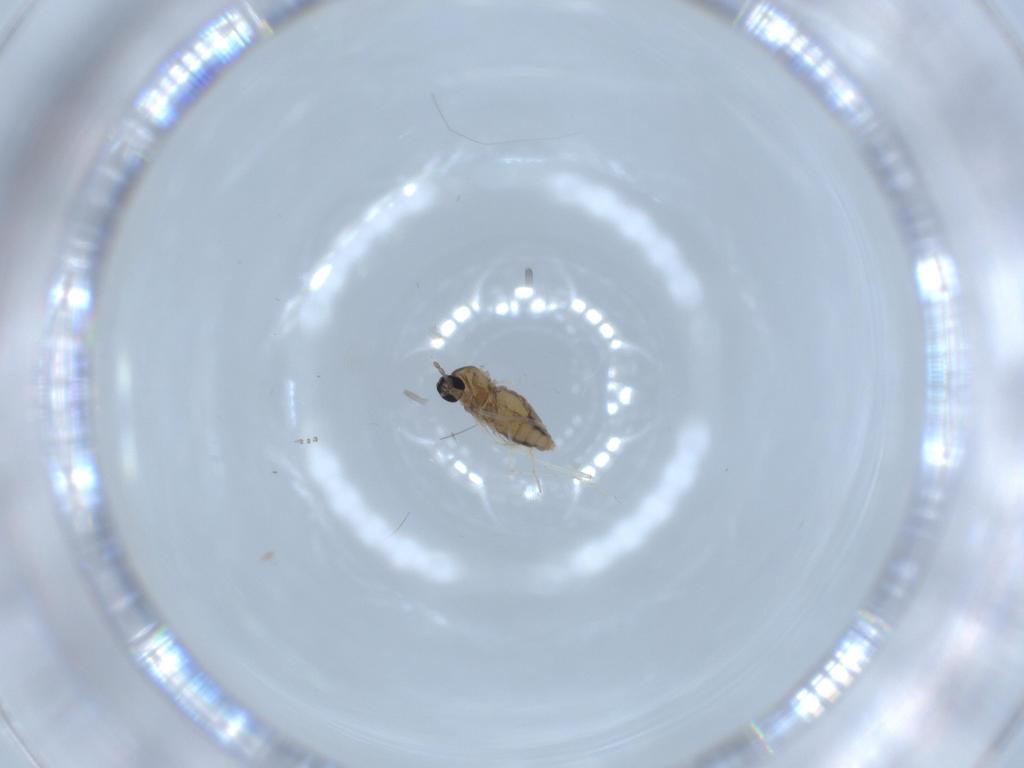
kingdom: Animalia
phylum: Arthropoda
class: Insecta
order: Diptera
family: Cecidomyiidae
